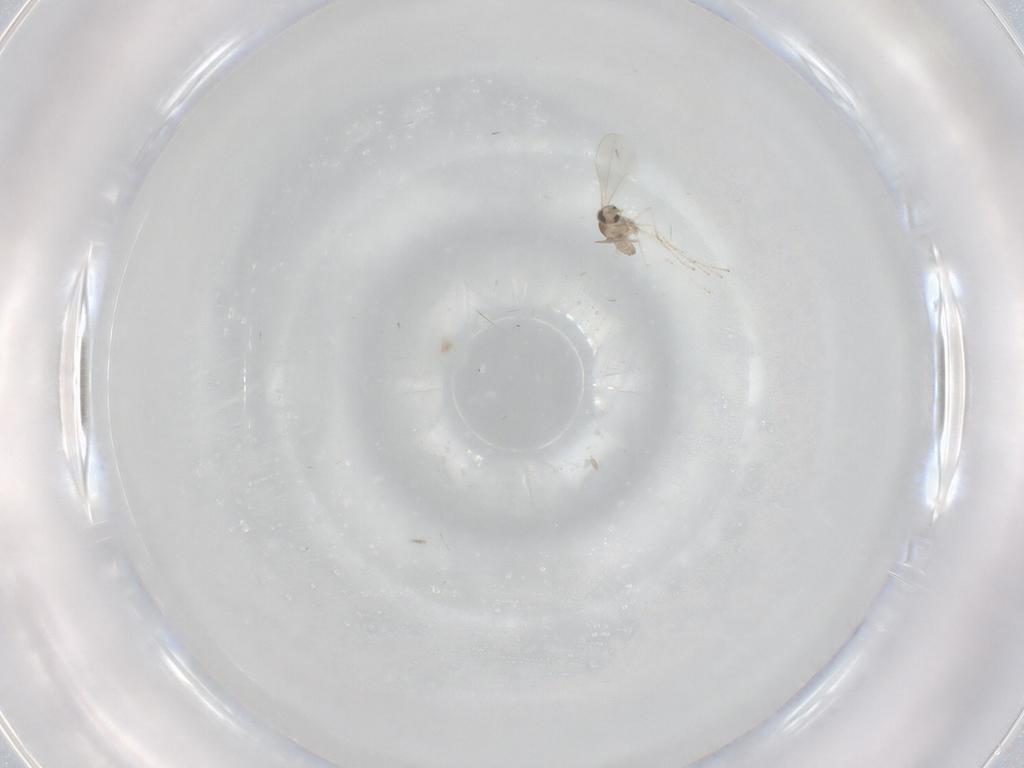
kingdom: Animalia
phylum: Arthropoda
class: Insecta
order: Diptera
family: Cecidomyiidae
